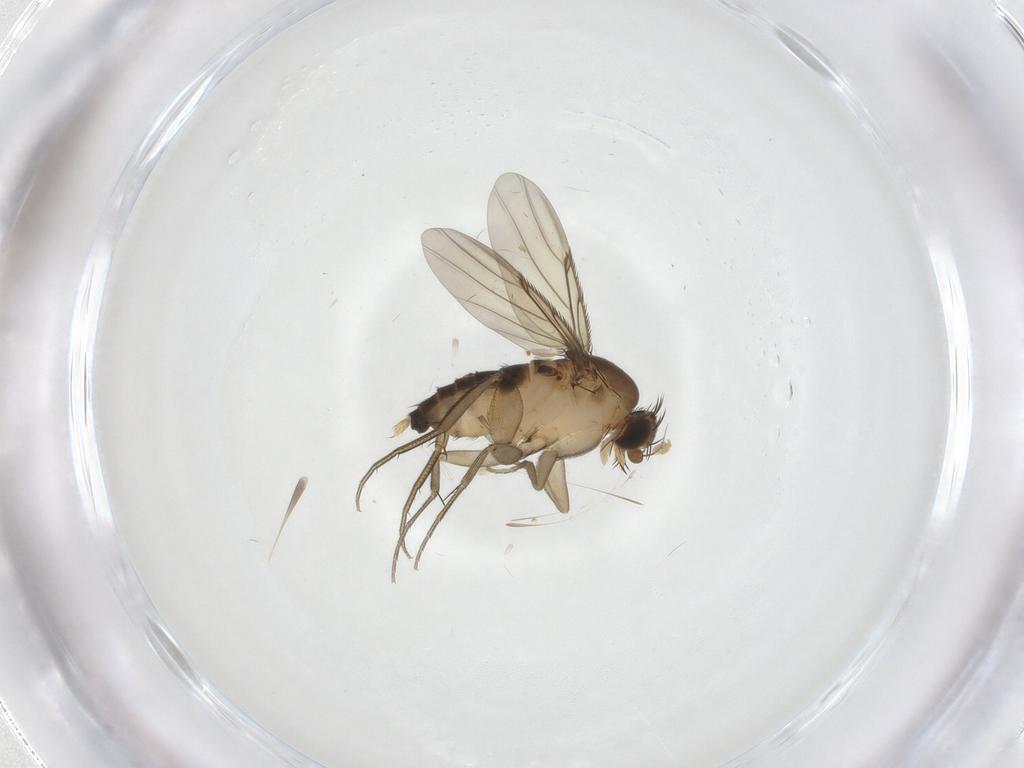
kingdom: Animalia
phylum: Arthropoda
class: Insecta
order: Diptera
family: Phoridae
